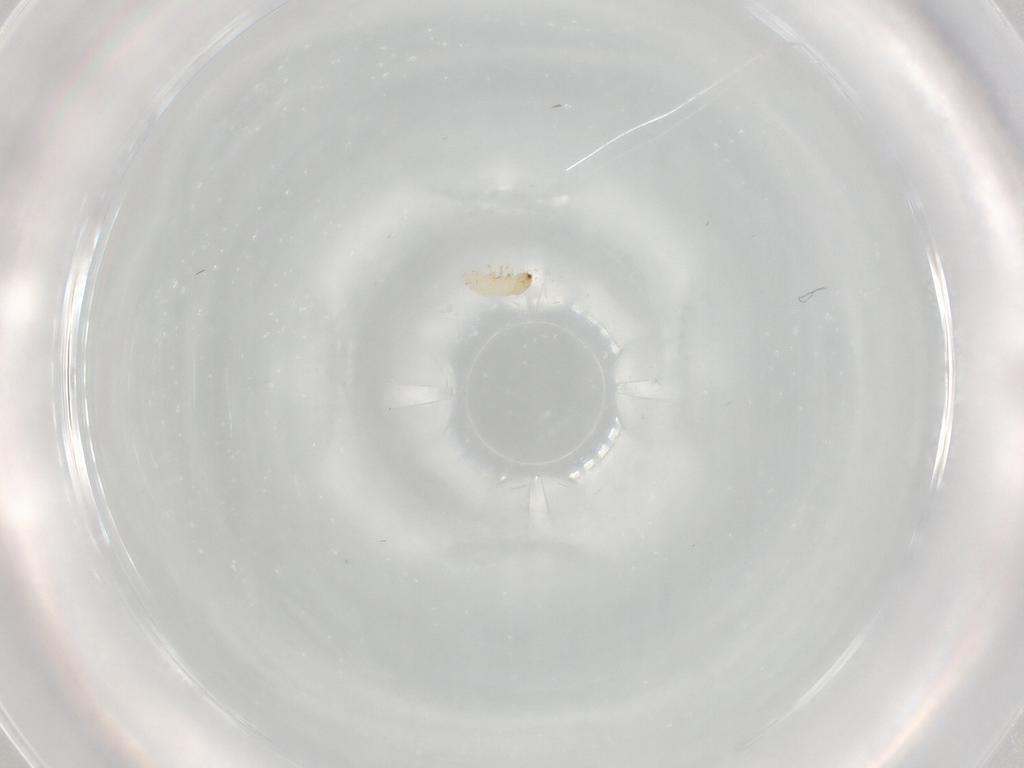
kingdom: Animalia
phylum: Arthropoda
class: Insecta
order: Coleoptera
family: Chrysomelidae
